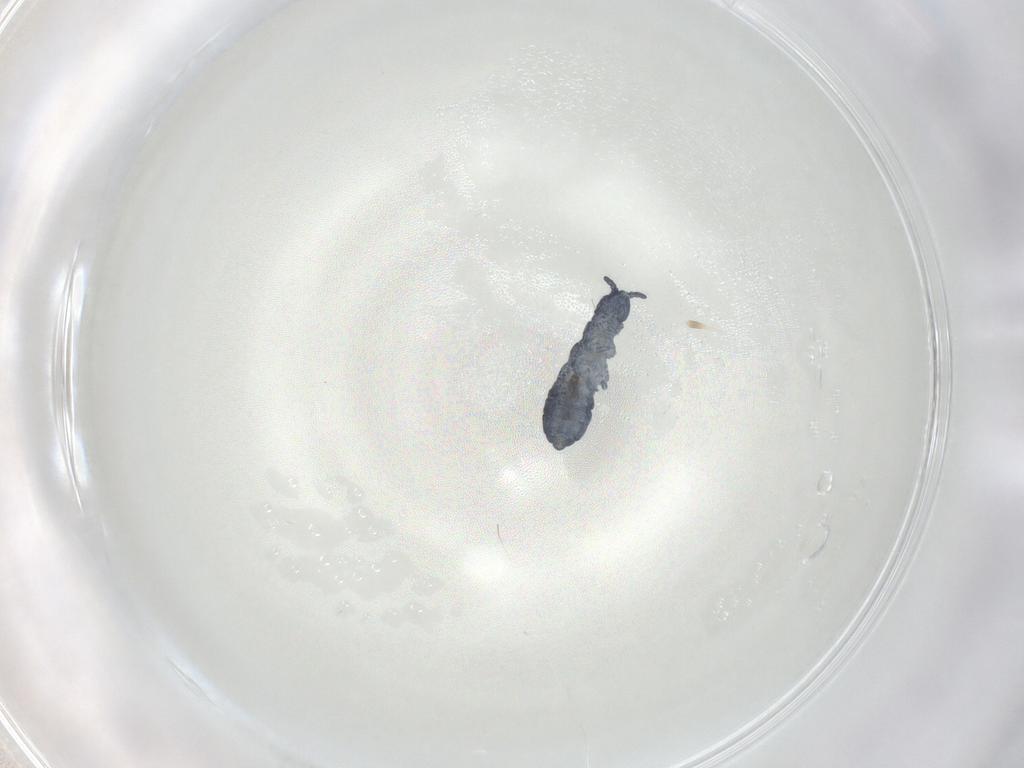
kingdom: Animalia
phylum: Arthropoda
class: Collembola
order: Poduromorpha
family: Hypogastruridae
